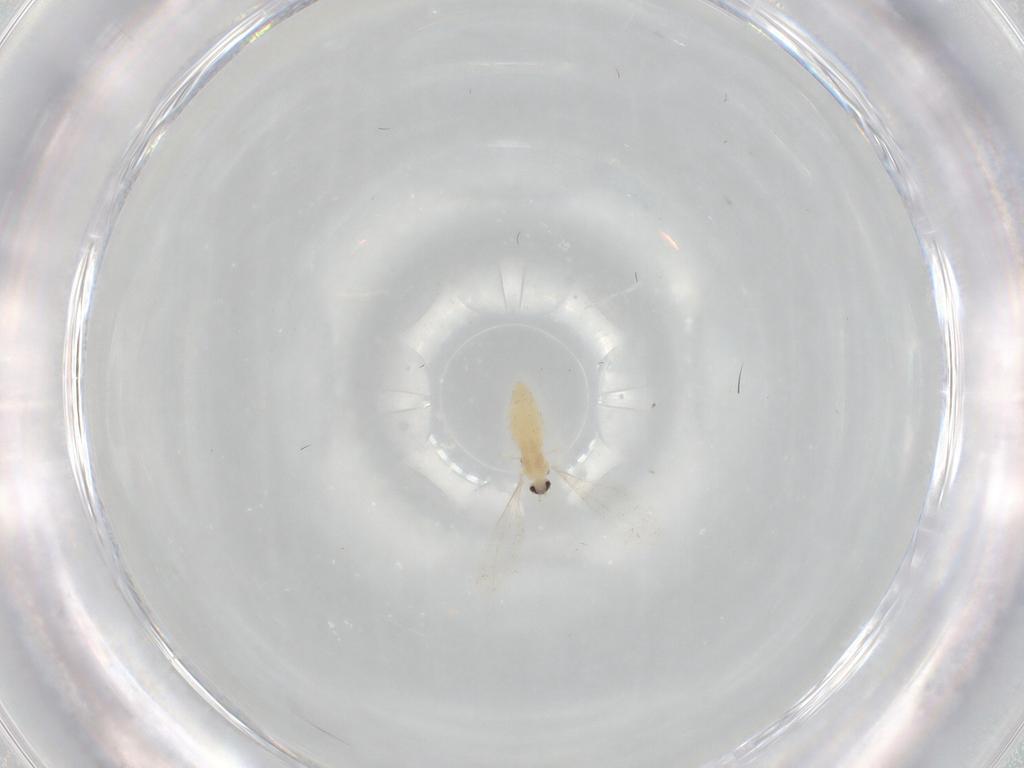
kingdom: Animalia
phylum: Arthropoda
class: Insecta
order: Diptera
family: Cecidomyiidae
